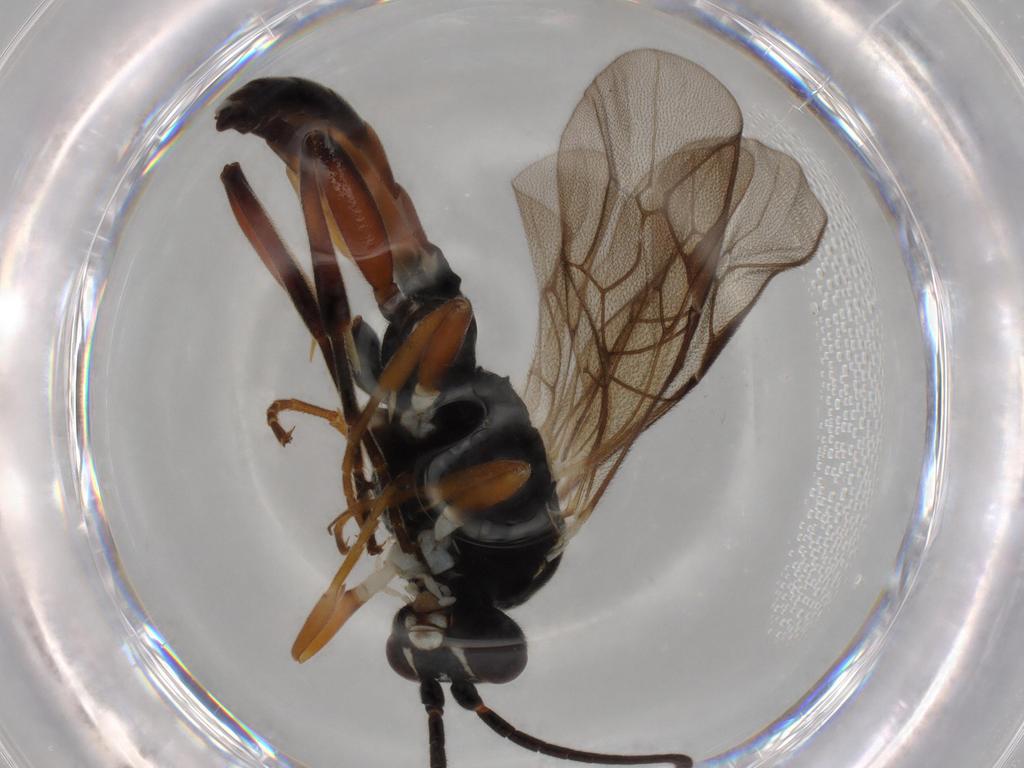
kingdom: Animalia
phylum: Arthropoda
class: Insecta
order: Hymenoptera
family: Ichneumonidae
